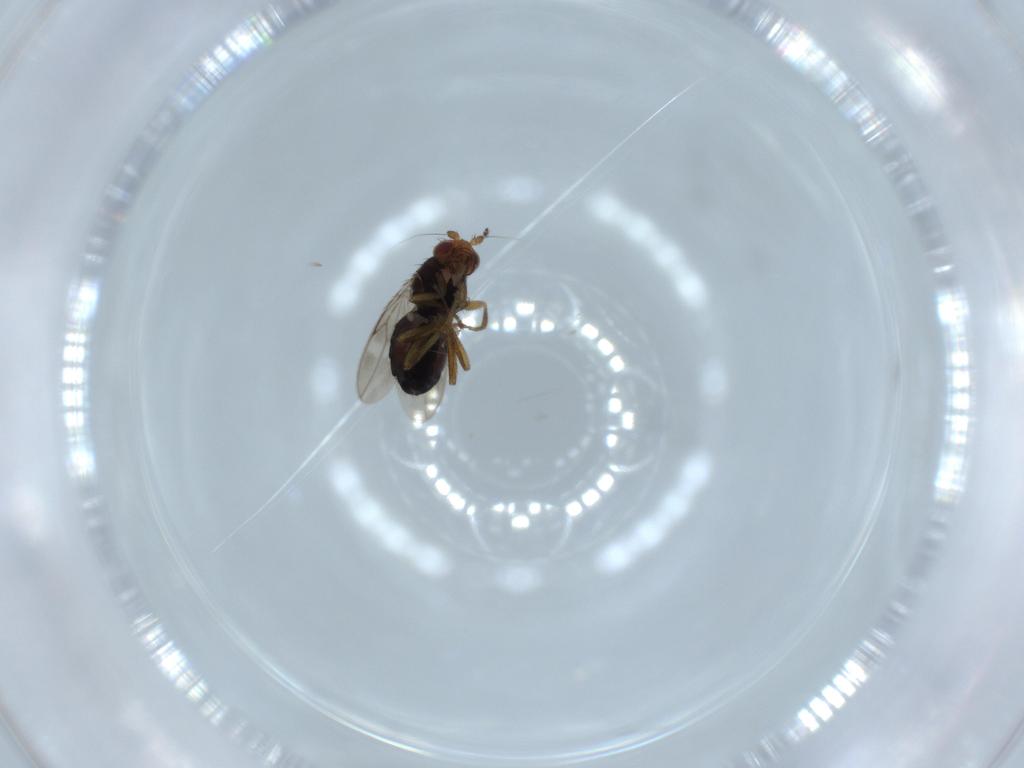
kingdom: Animalia
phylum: Arthropoda
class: Insecta
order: Diptera
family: Sphaeroceridae
